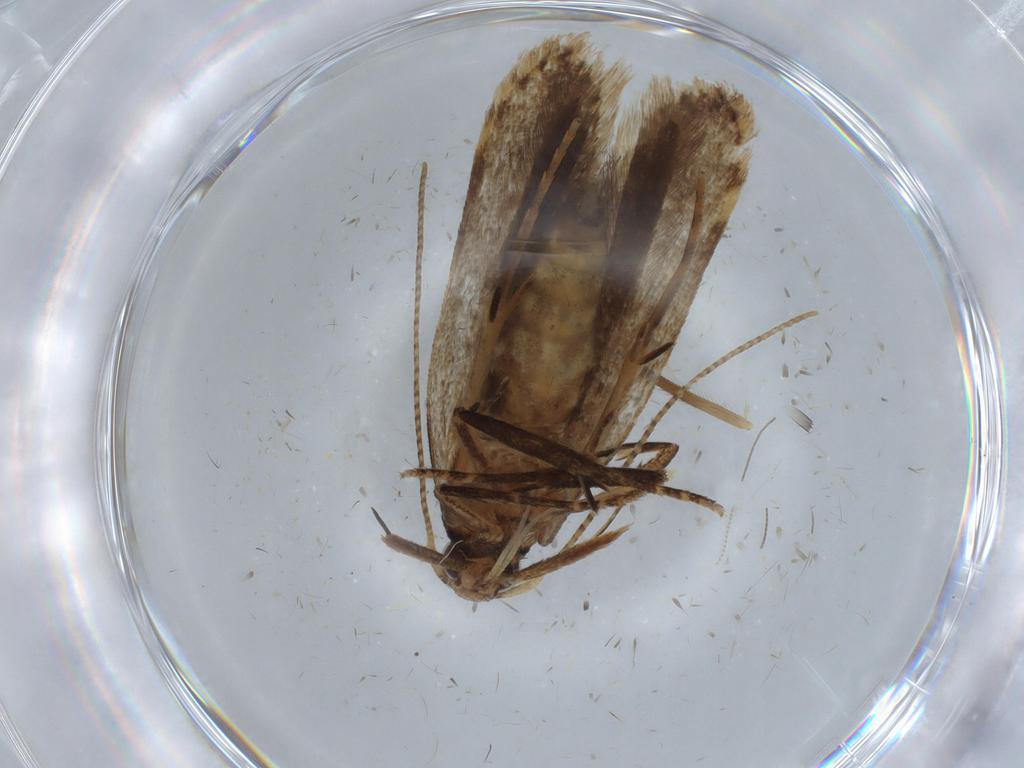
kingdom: Animalia
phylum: Arthropoda
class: Insecta
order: Lepidoptera
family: Gelechiidae
